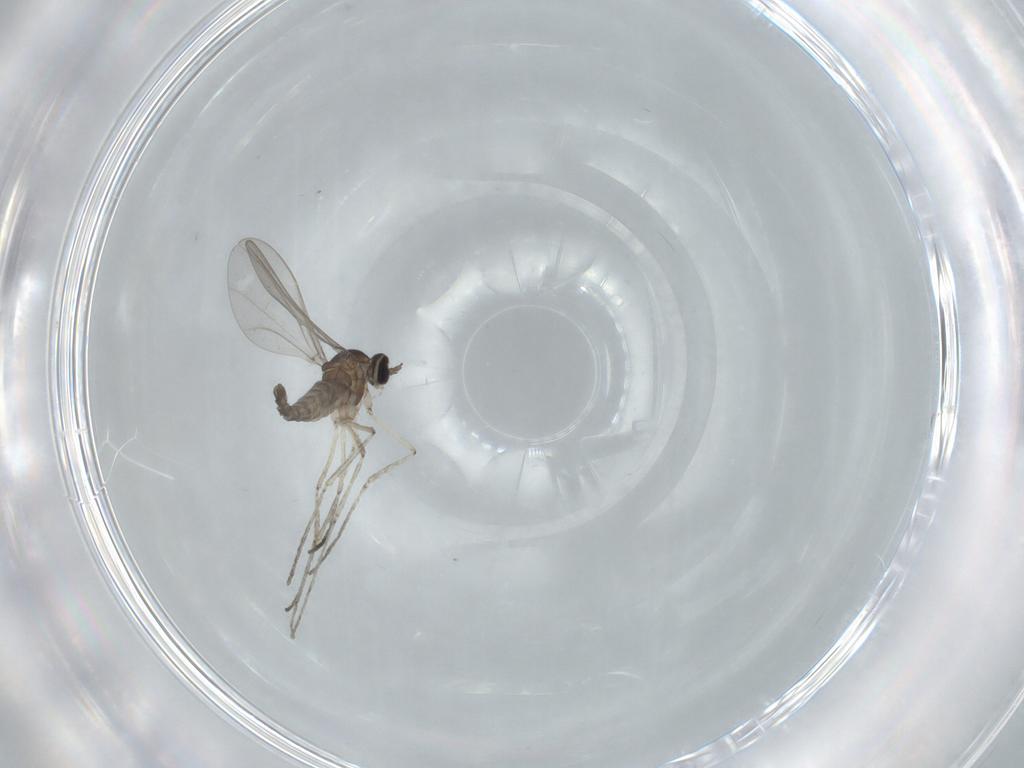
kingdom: Animalia
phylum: Arthropoda
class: Insecta
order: Diptera
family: Cecidomyiidae
